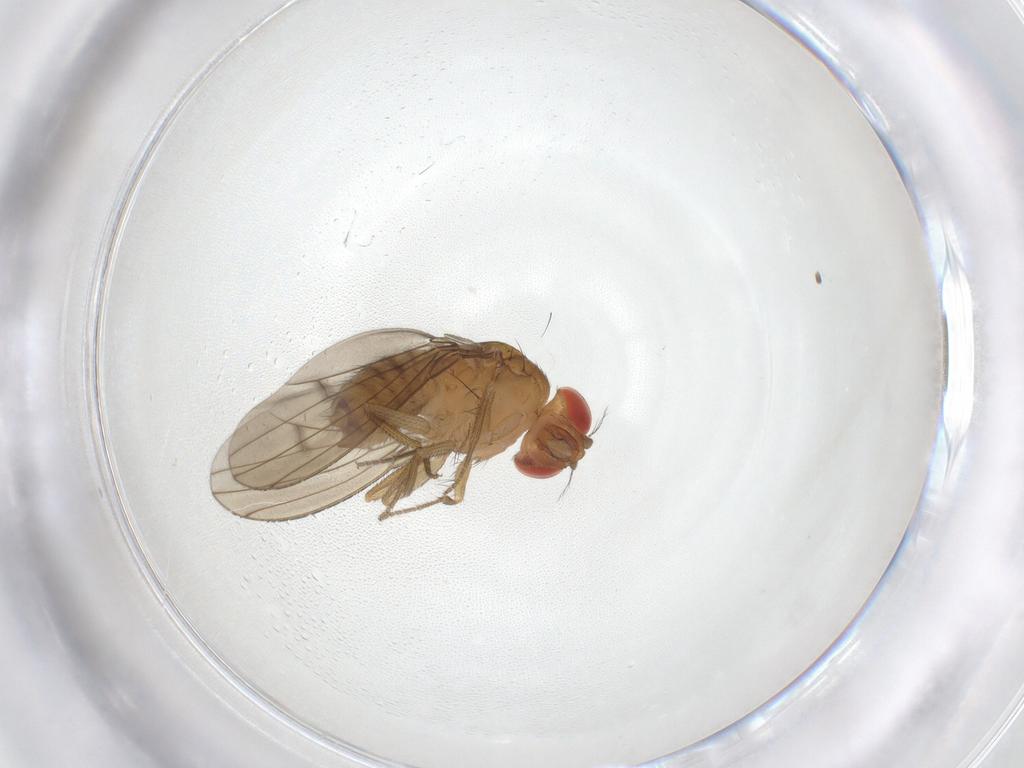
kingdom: Animalia
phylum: Arthropoda
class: Insecta
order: Diptera
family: Drosophilidae
